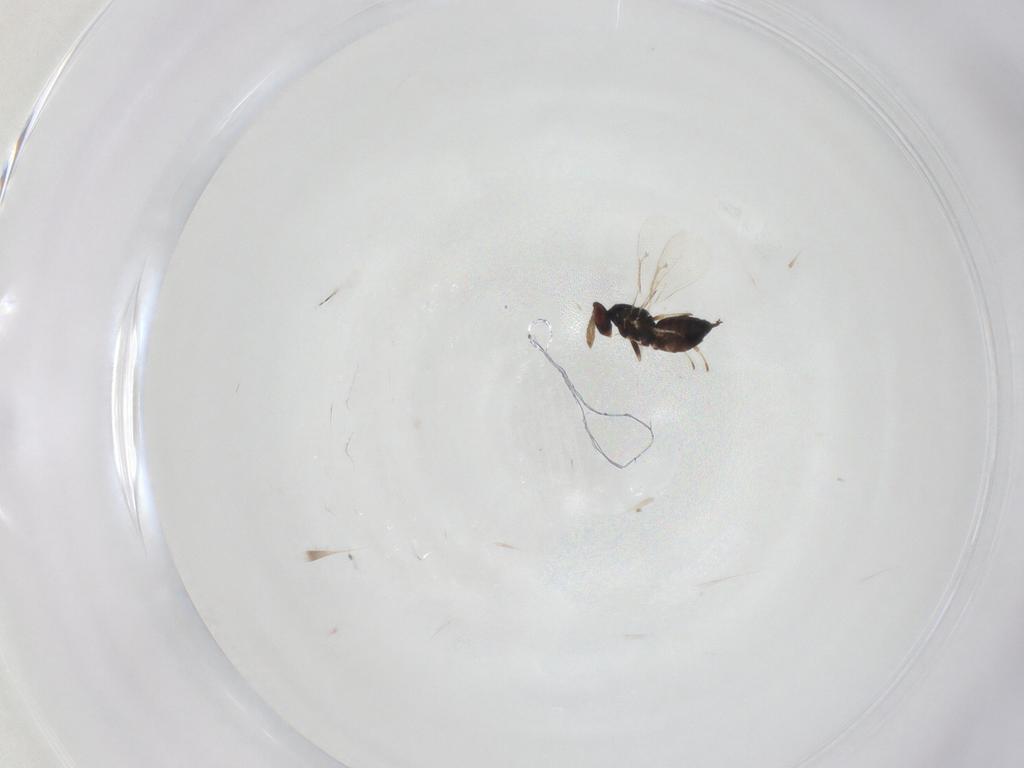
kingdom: Animalia
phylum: Arthropoda
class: Insecta
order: Hymenoptera
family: Eulophidae
